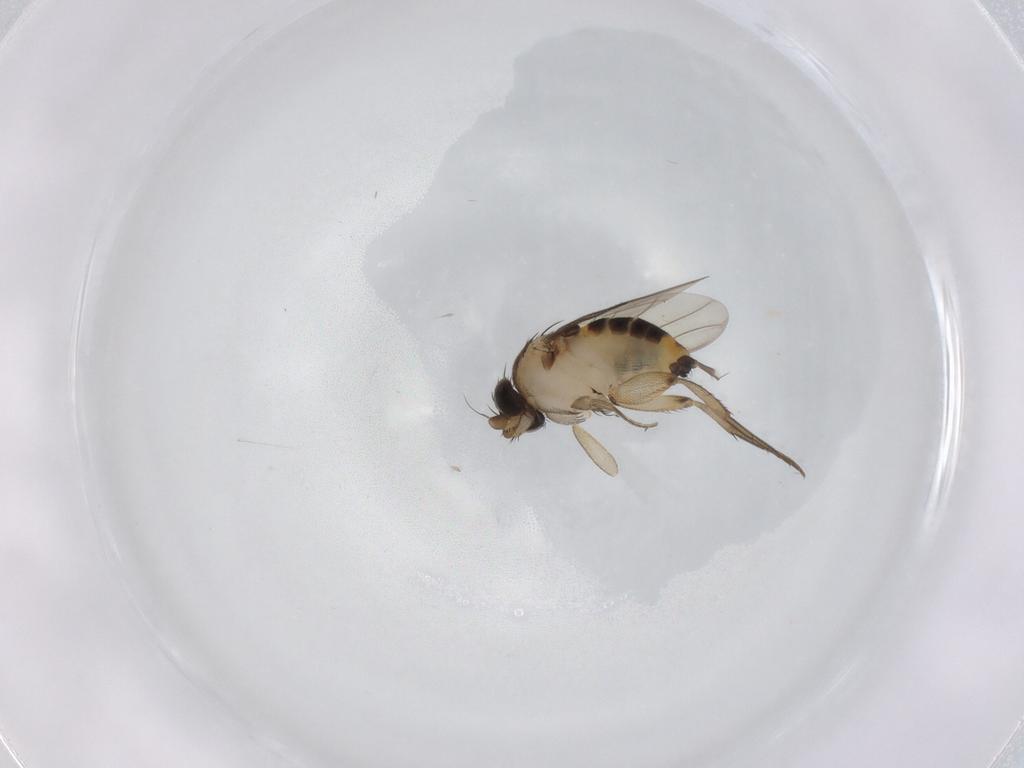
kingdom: Animalia
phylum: Arthropoda
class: Insecta
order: Diptera
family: Phoridae
